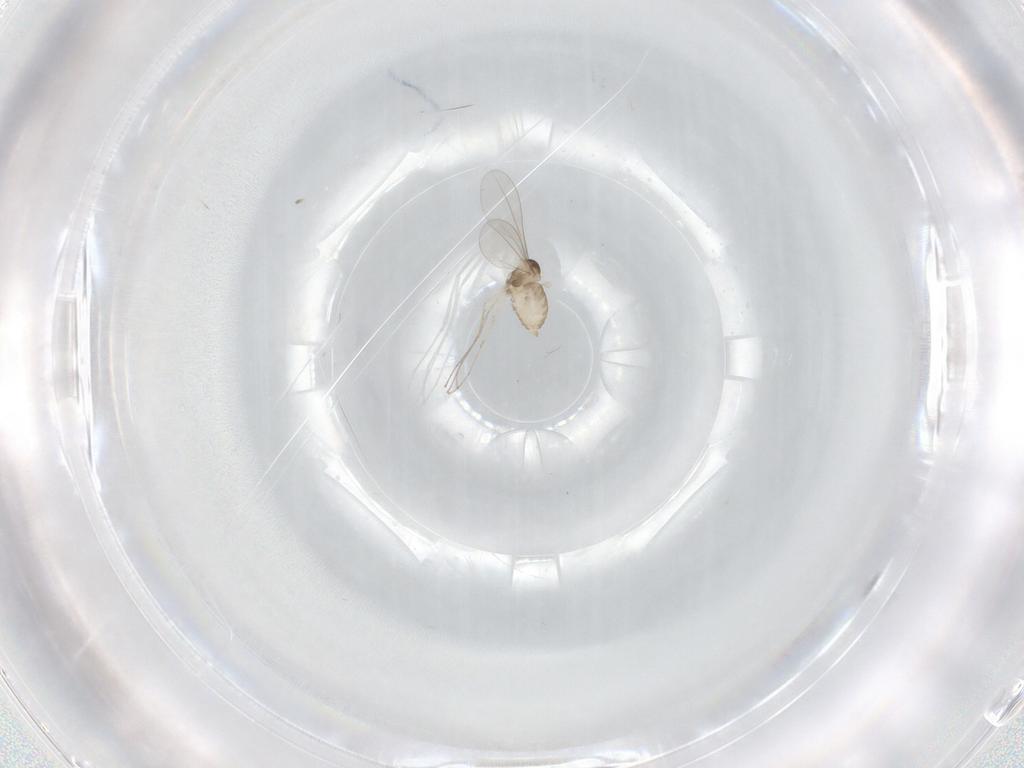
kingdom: Animalia
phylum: Arthropoda
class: Insecta
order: Diptera
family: Cecidomyiidae
